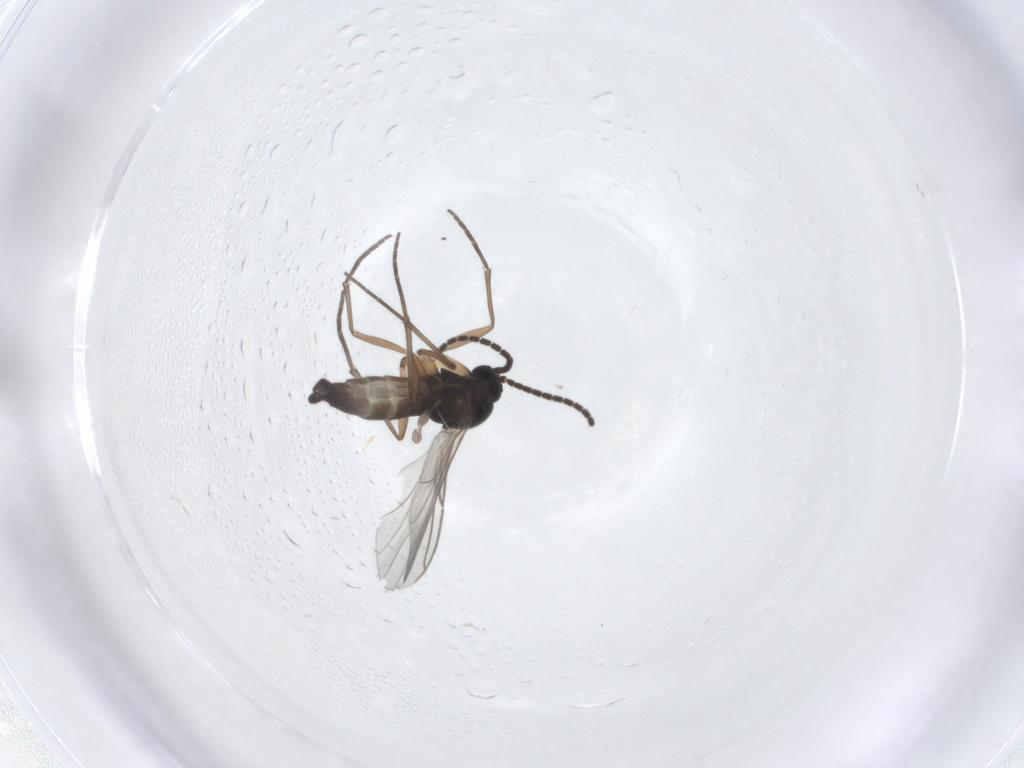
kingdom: Animalia
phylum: Arthropoda
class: Insecta
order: Diptera
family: Sciaridae
